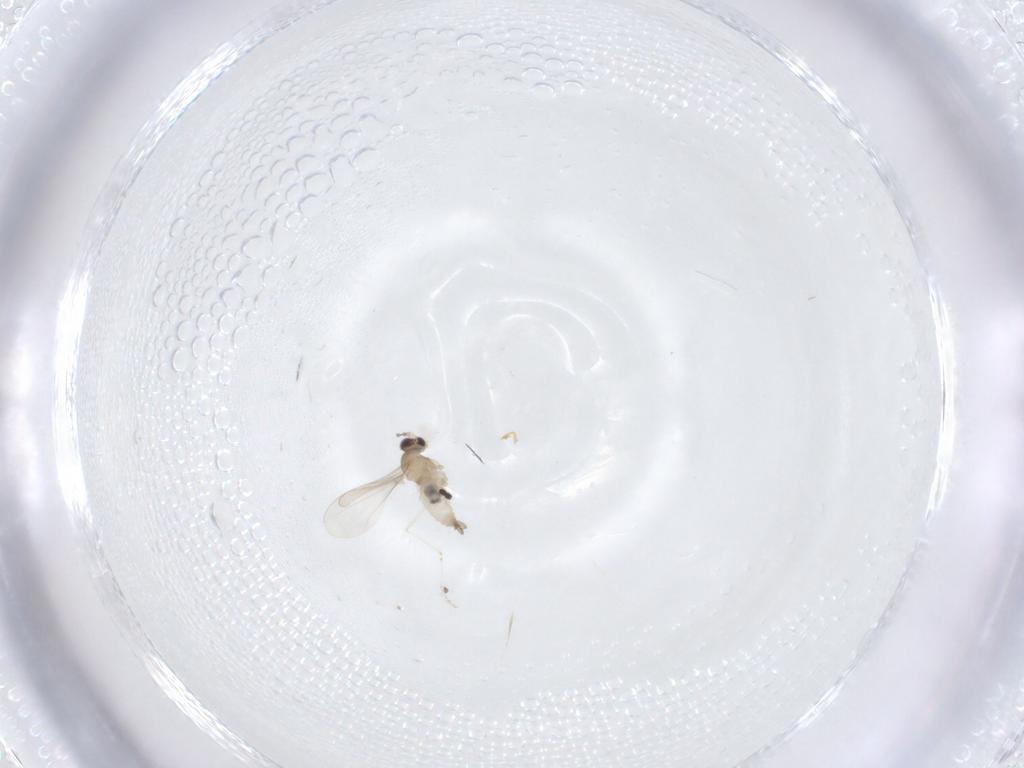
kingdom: Animalia
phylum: Arthropoda
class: Insecta
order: Diptera
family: Cecidomyiidae
